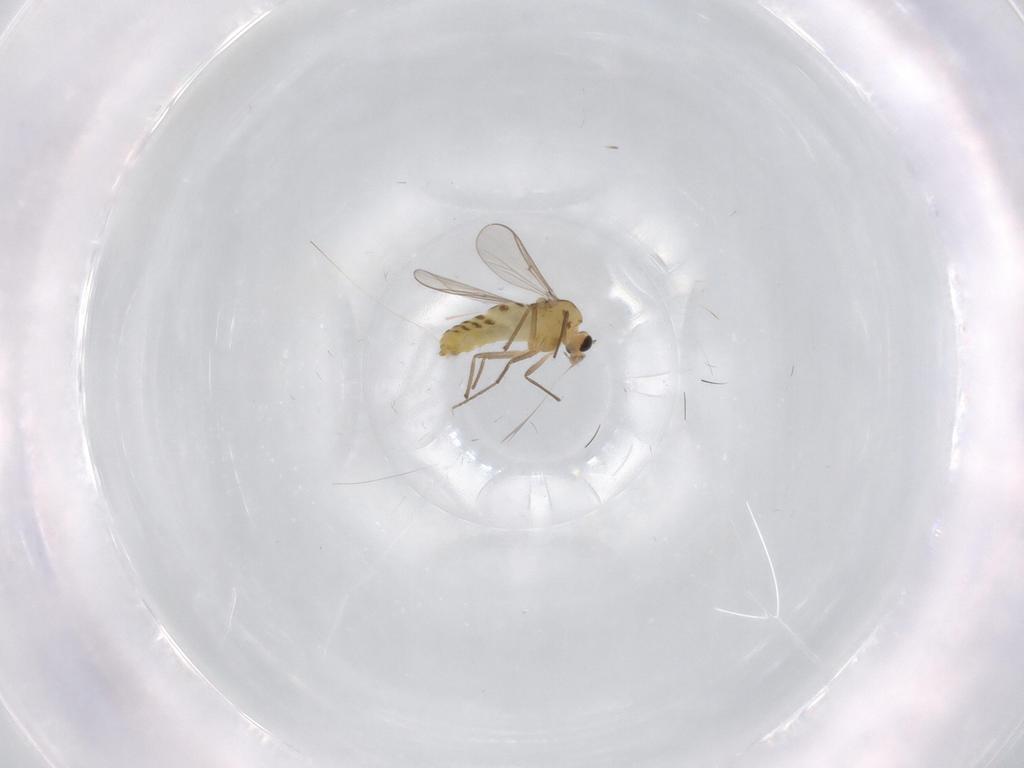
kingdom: Animalia
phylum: Arthropoda
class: Insecta
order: Diptera
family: Chironomidae
